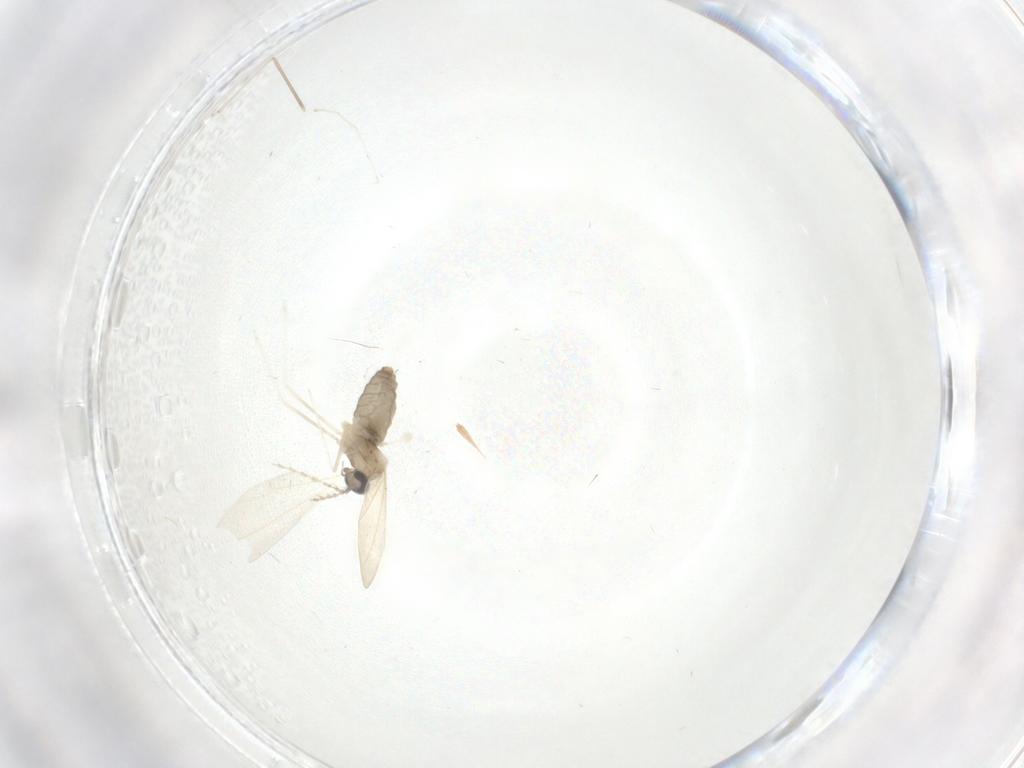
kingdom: Animalia
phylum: Arthropoda
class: Insecta
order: Diptera
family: Cecidomyiidae
